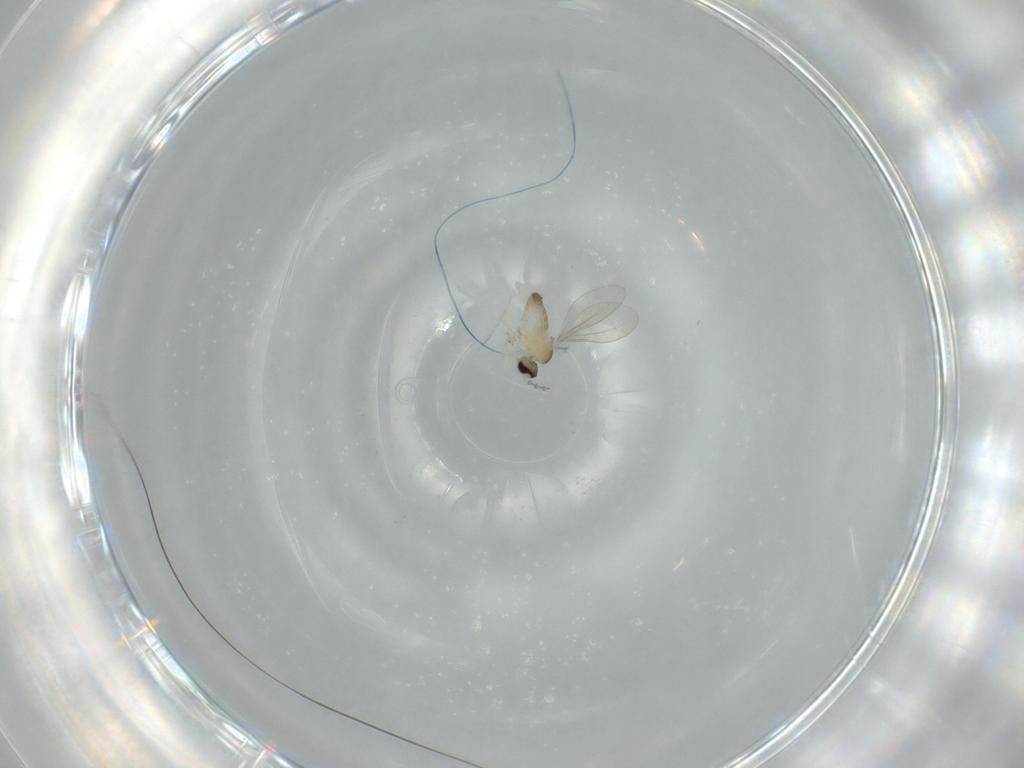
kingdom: Animalia
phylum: Arthropoda
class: Insecta
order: Diptera
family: Cecidomyiidae
